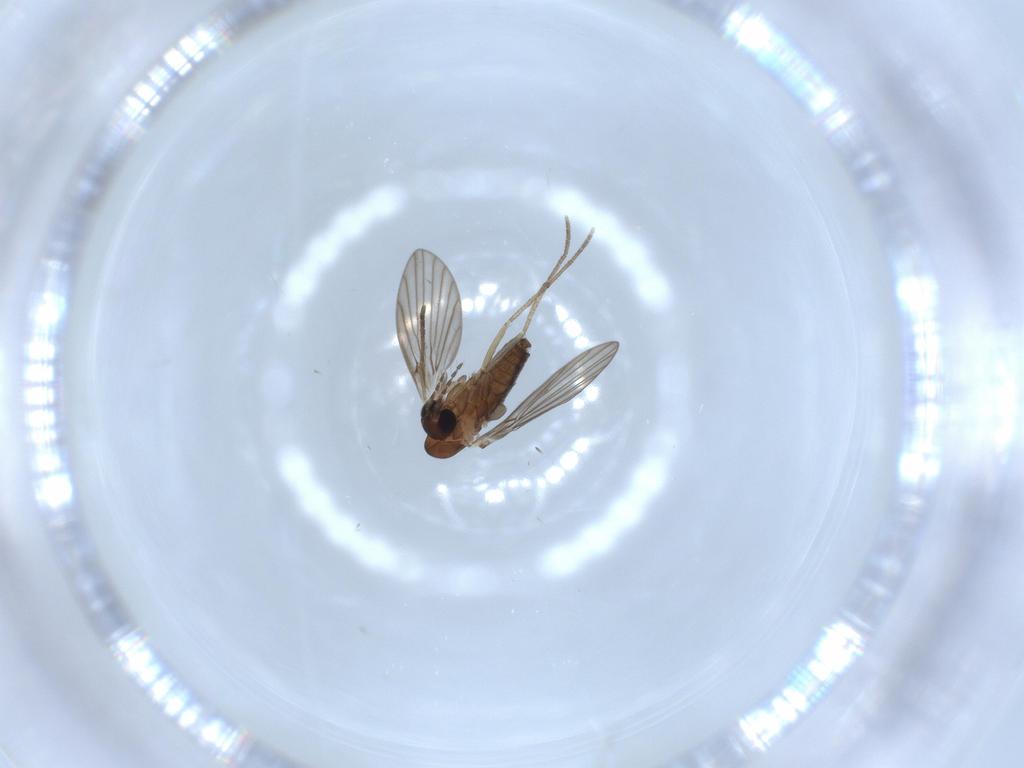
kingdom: Animalia
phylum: Arthropoda
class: Insecta
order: Diptera
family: Psychodidae
